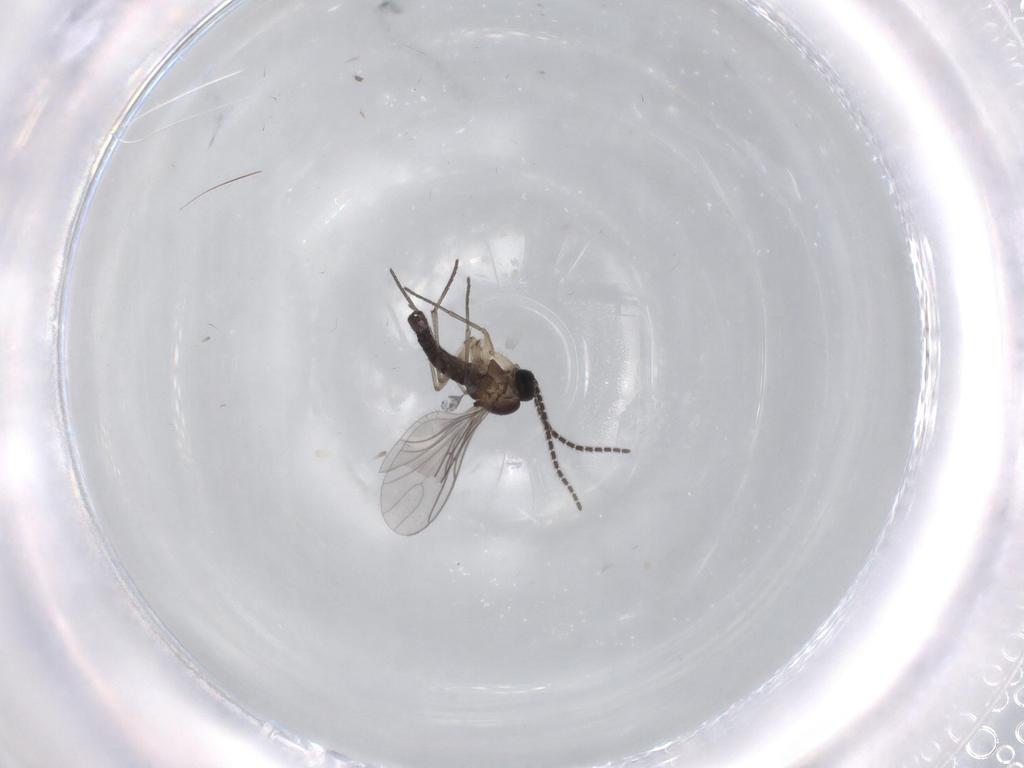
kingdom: Animalia
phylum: Arthropoda
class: Insecta
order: Diptera
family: Sciaridae
